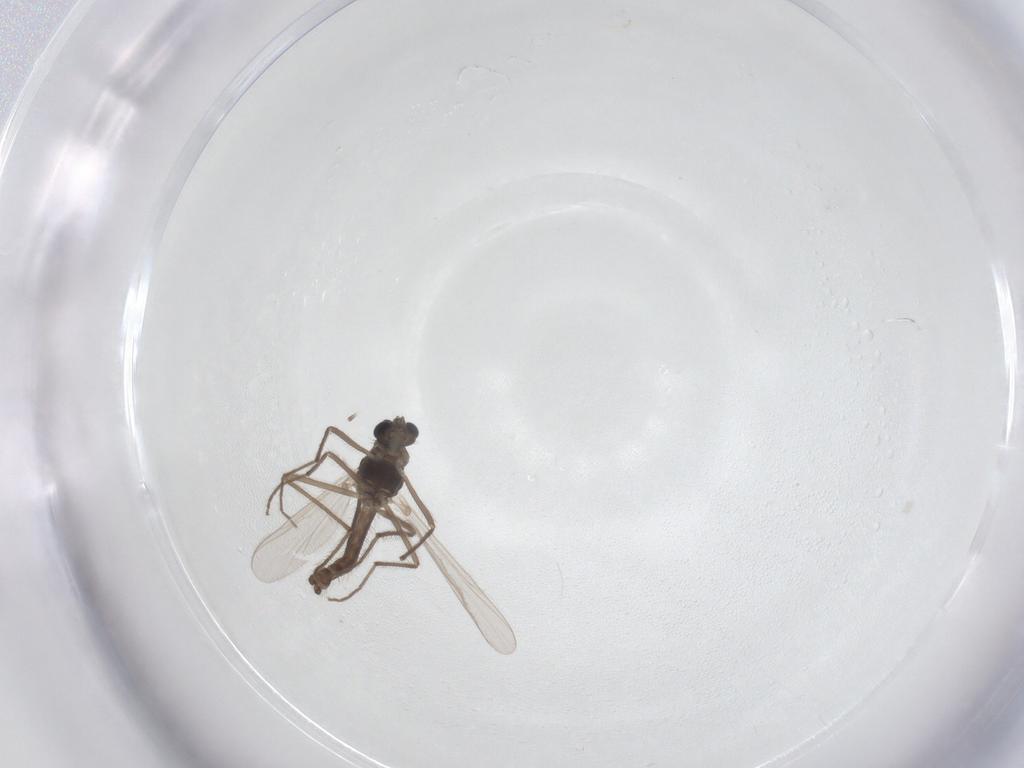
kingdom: Animalia
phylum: Arthropoda
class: Insecta
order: Diptera
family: Chironomidae
